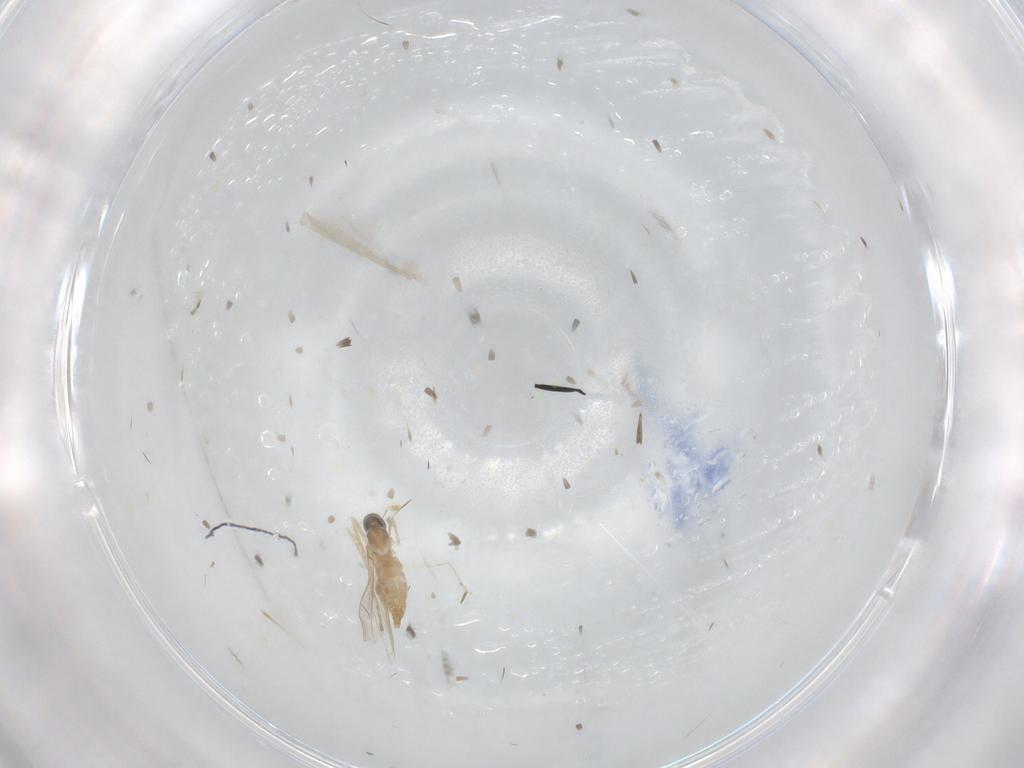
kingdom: Animalia
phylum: Arthropoda
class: Insecta
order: Diptera
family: Cecidomyiidae
